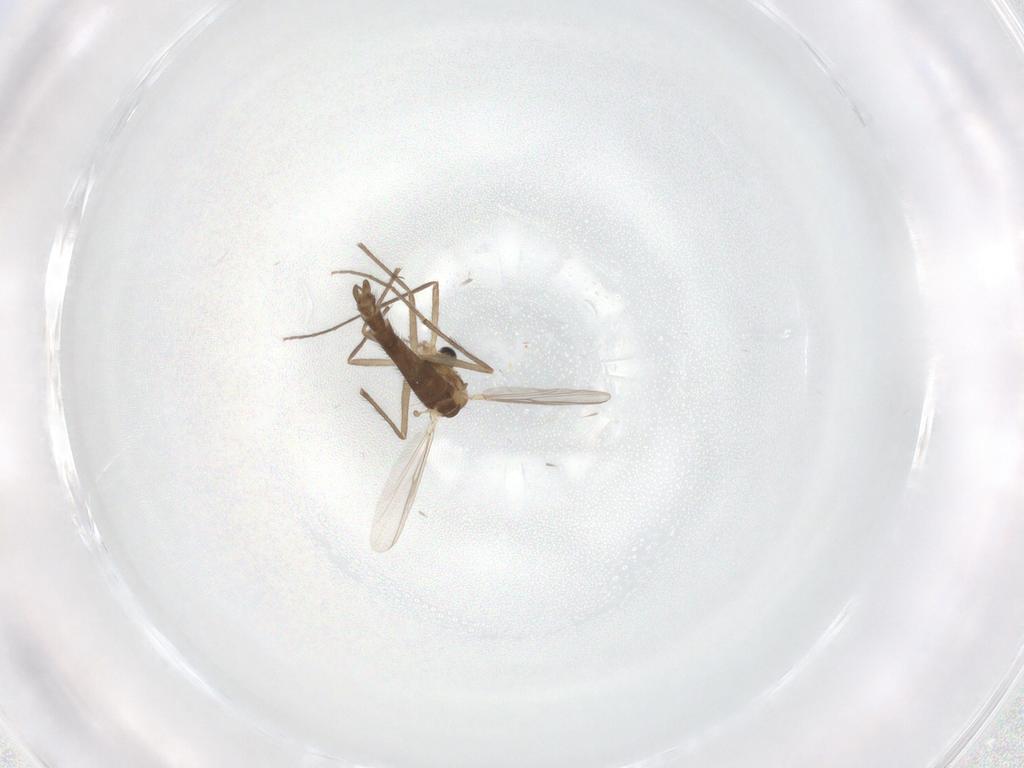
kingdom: Animalia
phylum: Arthropoda
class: Insecta
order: Diptera
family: Chironomidae
